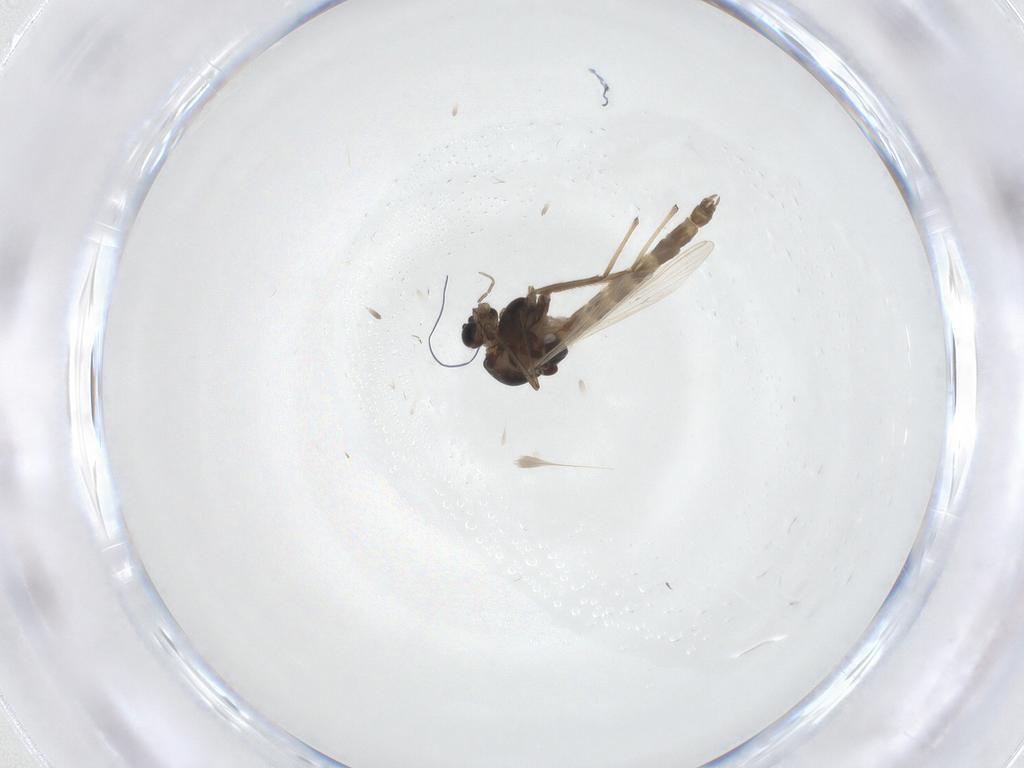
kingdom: Animalia
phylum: Arthropoda
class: Insecta
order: Diptera
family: Chironomidae
